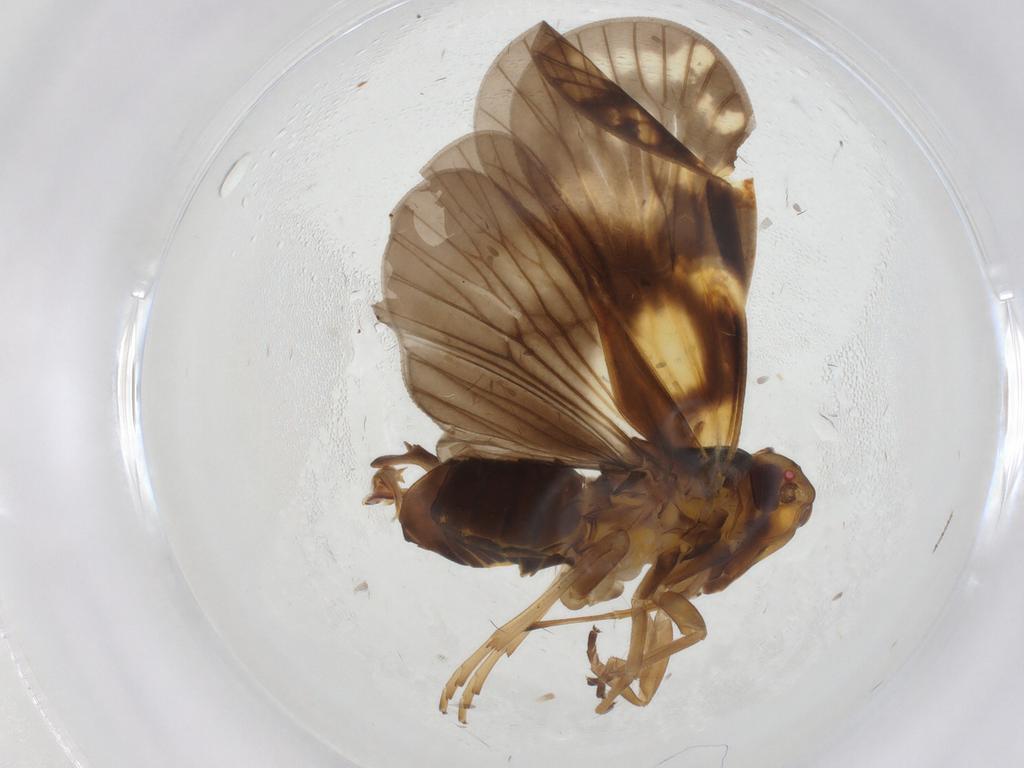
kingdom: Animalia
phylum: Arthropoda
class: Insecta
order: Hemiptera
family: Cixiidae
